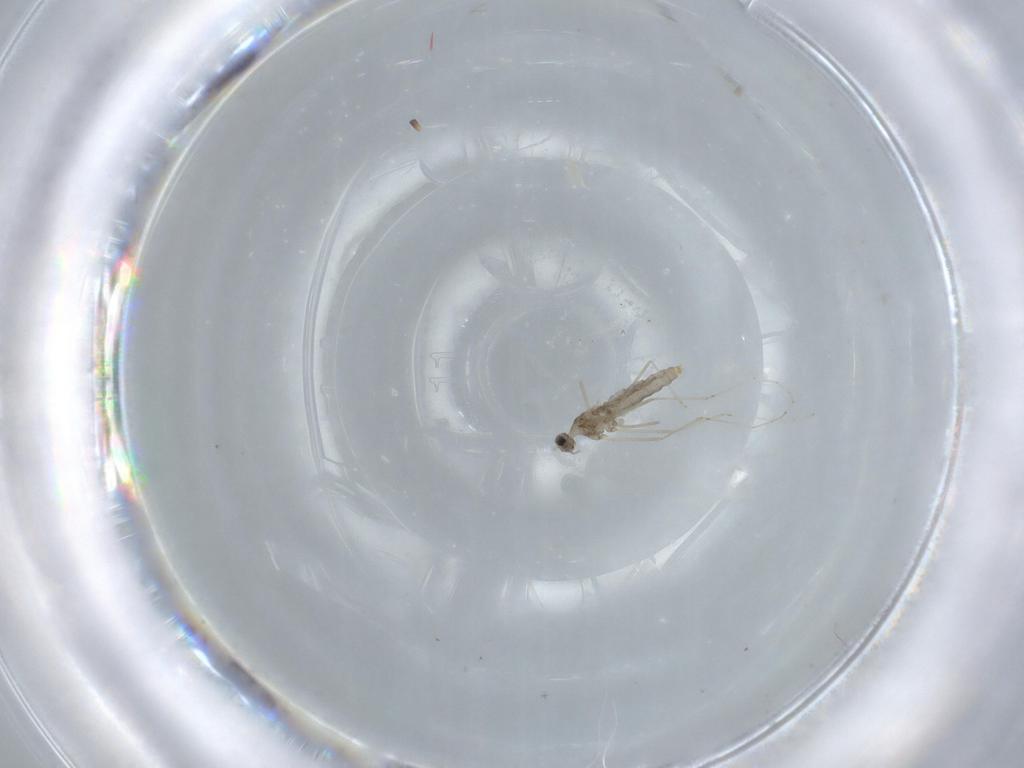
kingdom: Animalia
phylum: Arthropoda
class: Insecta
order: Diptera
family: Cecidomyiidae
